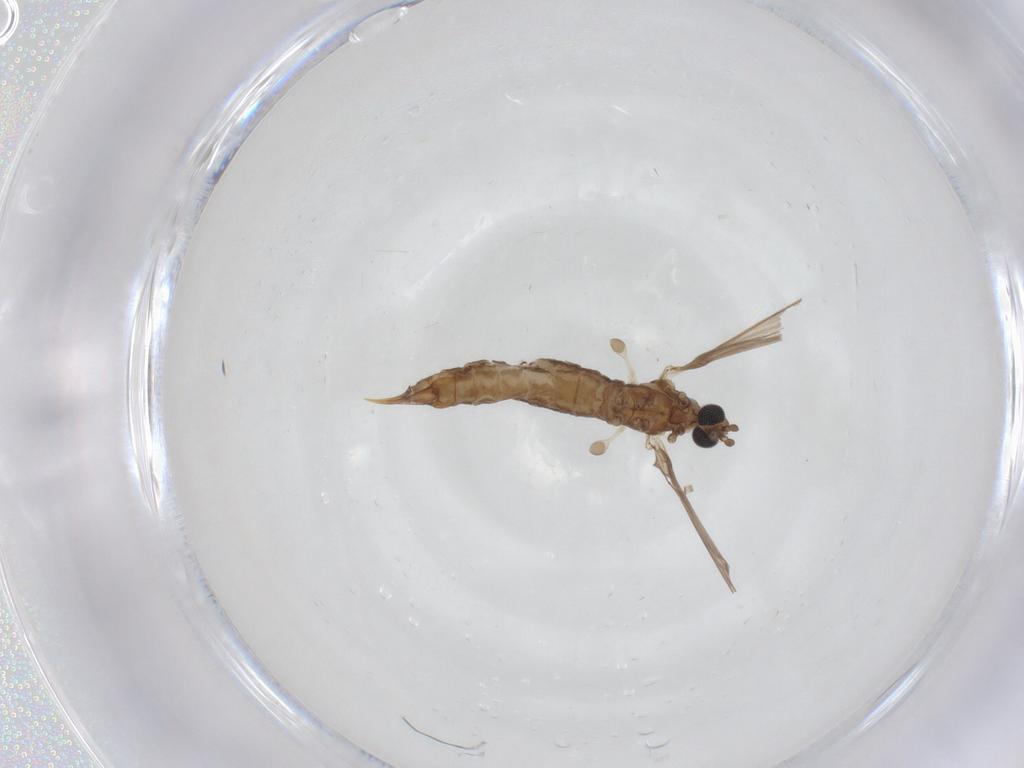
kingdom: Animalia
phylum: Arthropoda
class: Insecta
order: Diptera
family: Limoniidae
